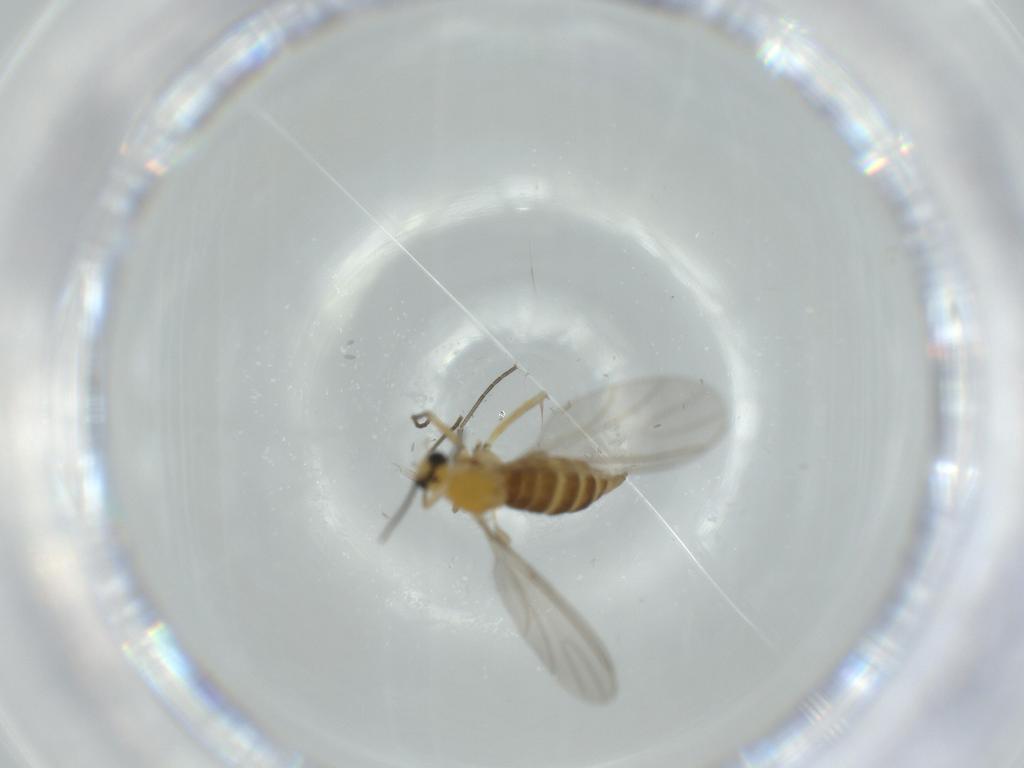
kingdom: Animalia
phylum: Arthropoda
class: Insecta
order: Diptera
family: Sciaridae
